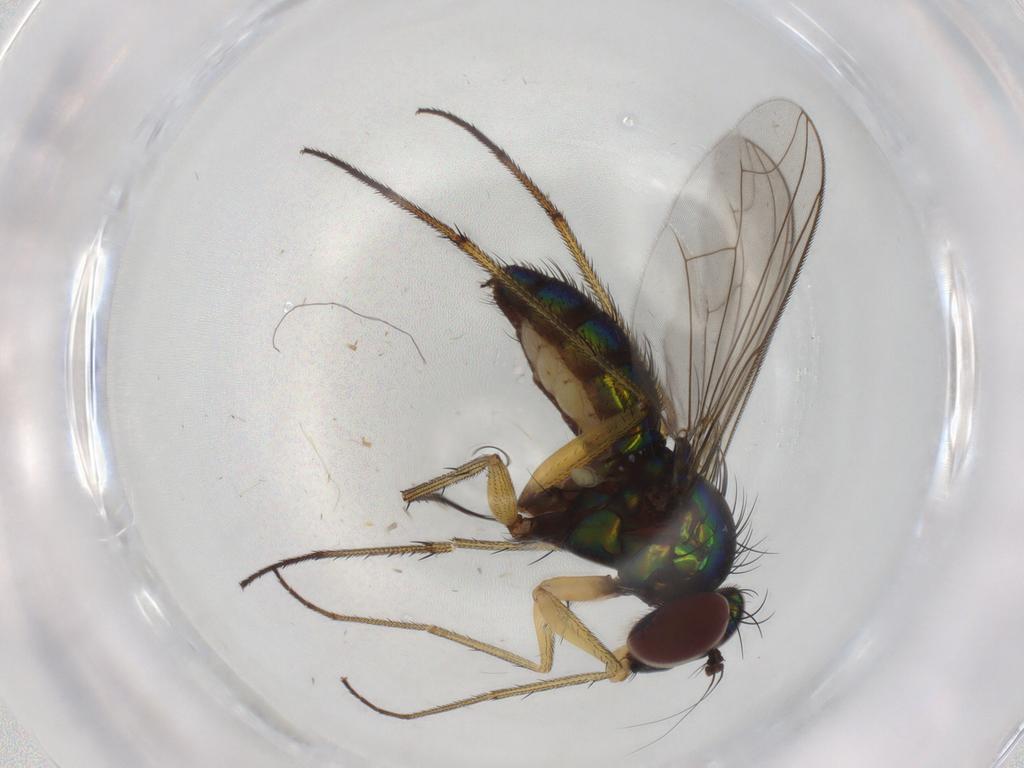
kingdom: Animalia
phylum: Arthropoda
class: Insecta
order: Diptera
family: Dolichopodidae
